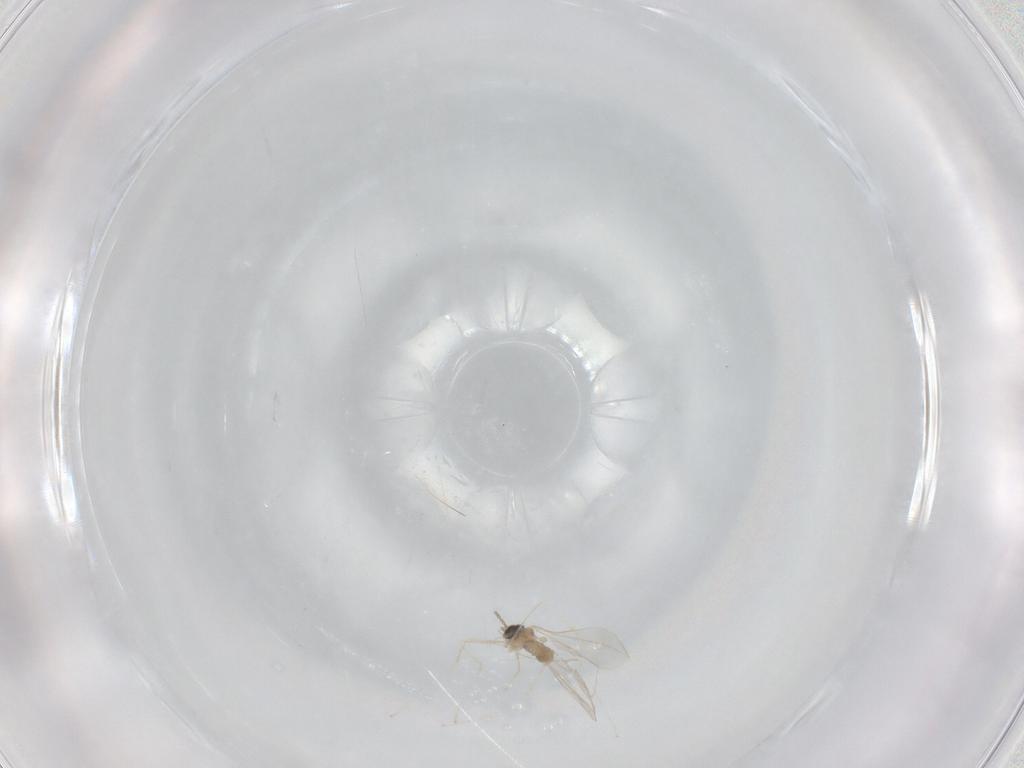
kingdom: Animalia
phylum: Arthropoda
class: Insecta
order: Diptera
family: Cecidomyiidae
